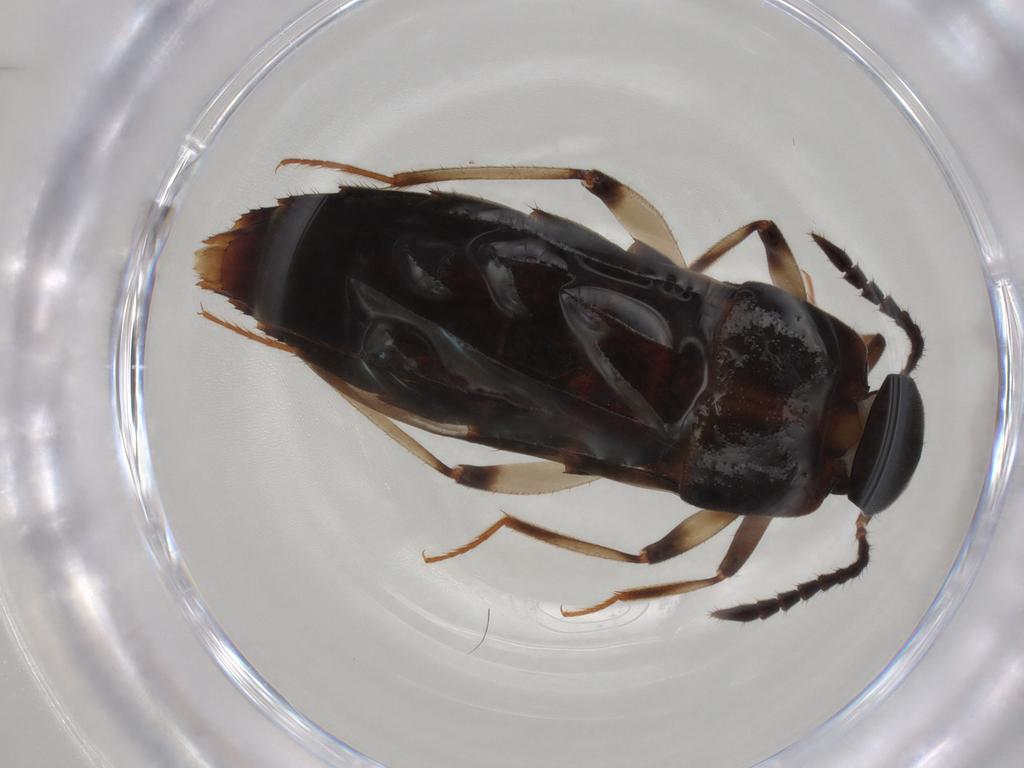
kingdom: Animalia
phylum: Arthropoda
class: Insecta
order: Coleoptera
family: Staphylinidae
